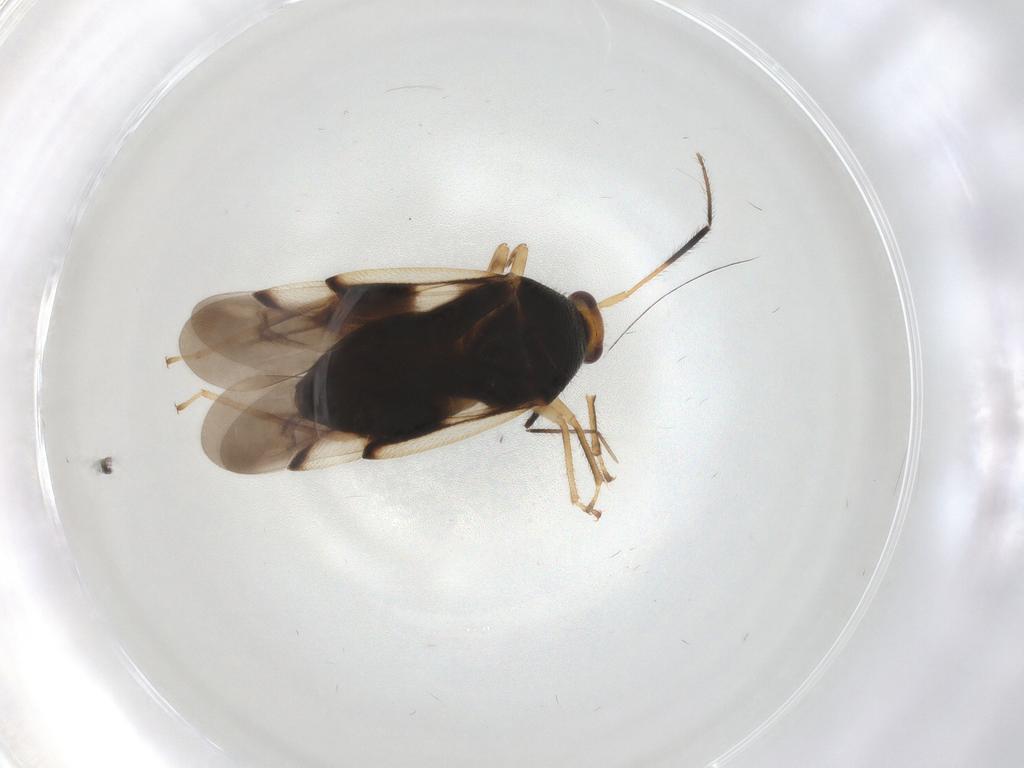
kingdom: Animalia
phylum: Arthropoda
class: Insecta
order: Hemiptera
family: Miridae
